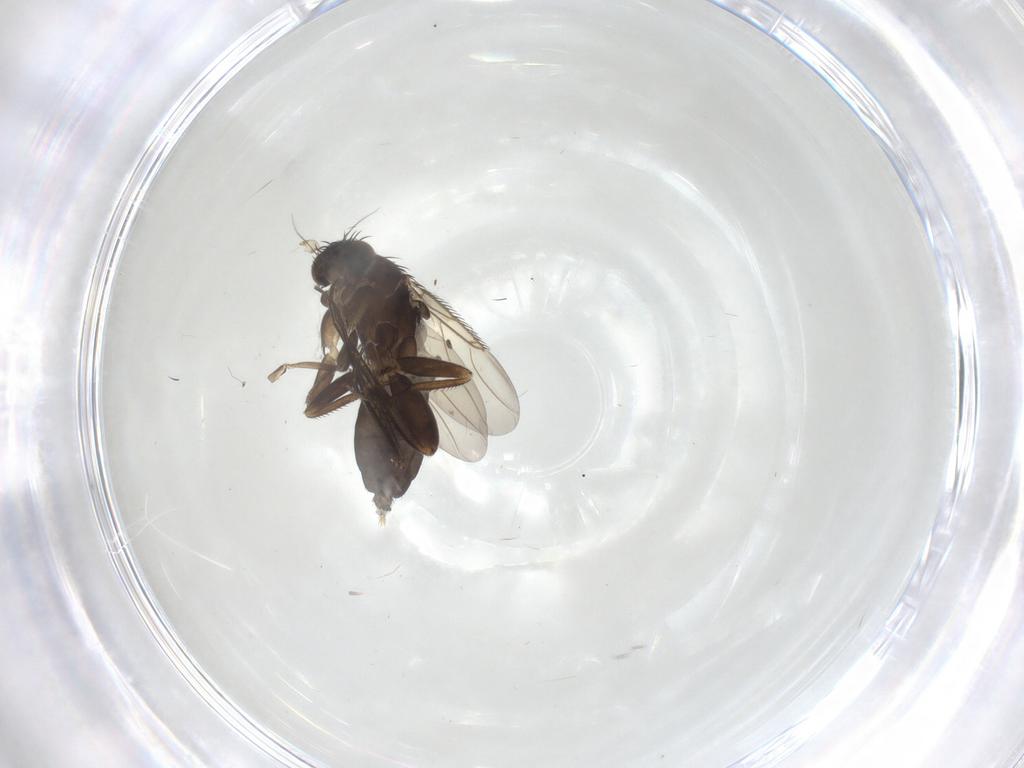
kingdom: Animalia
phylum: Arthropoda
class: Insecta
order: Diptera
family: Phoridae
